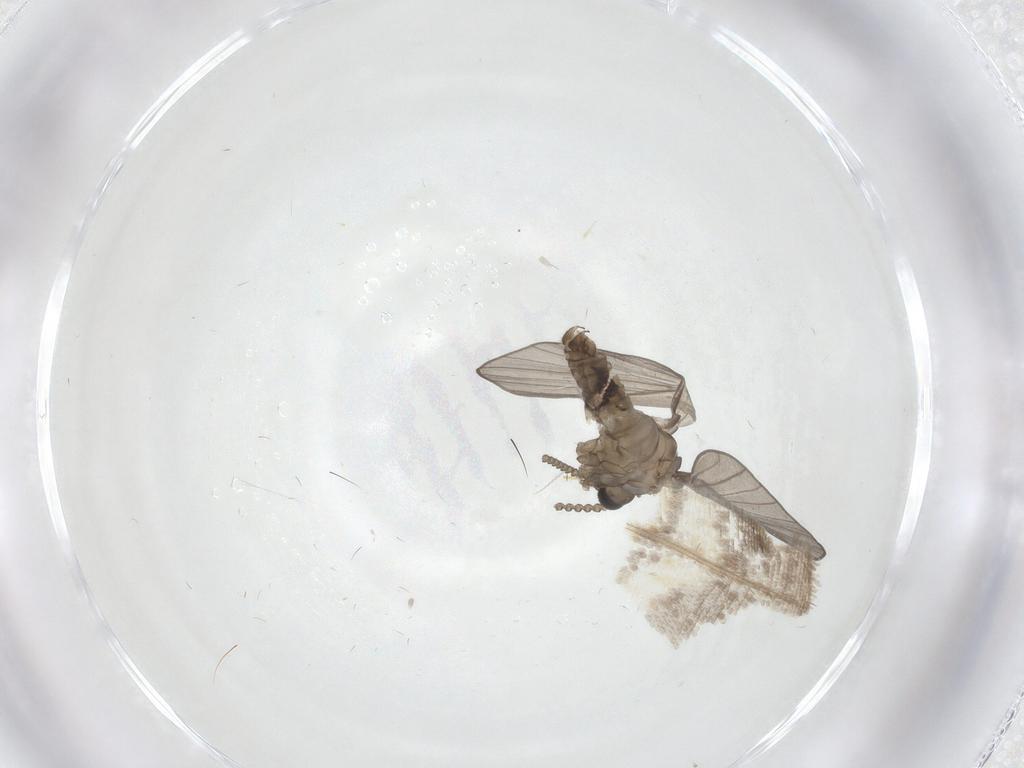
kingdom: Animalia
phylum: Arthropoda
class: Insecta
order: Diptera
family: Psychodidae
